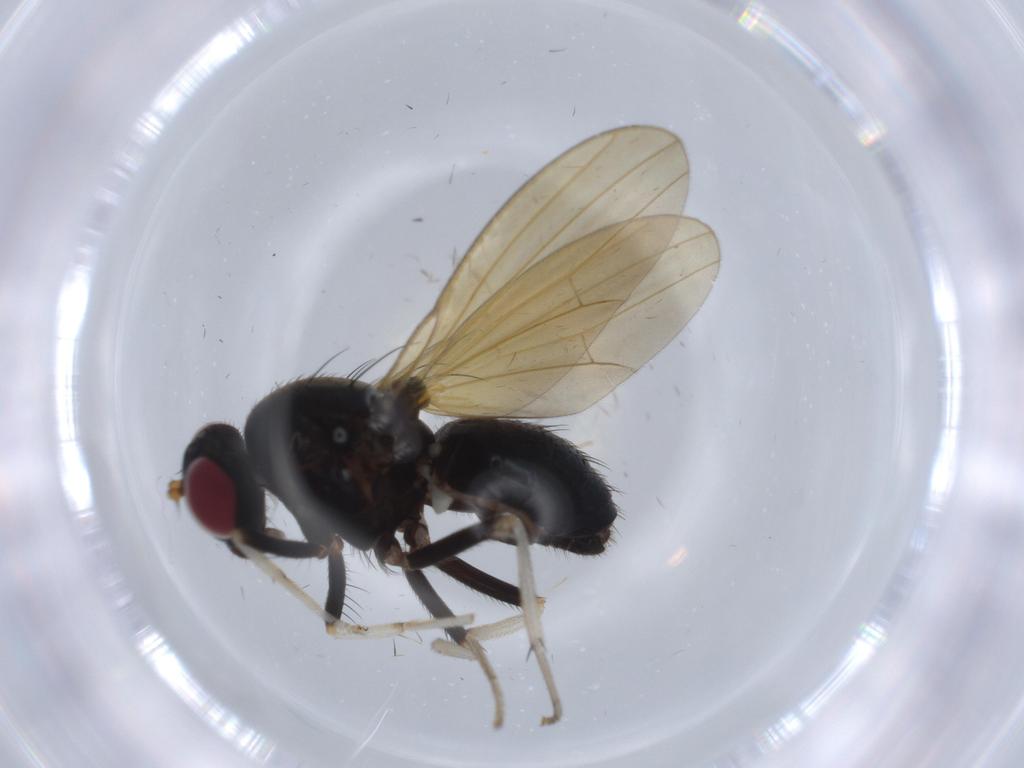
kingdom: Animalia
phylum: Arthropoda
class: Insecta
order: Diptera
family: Lauxaniidae
